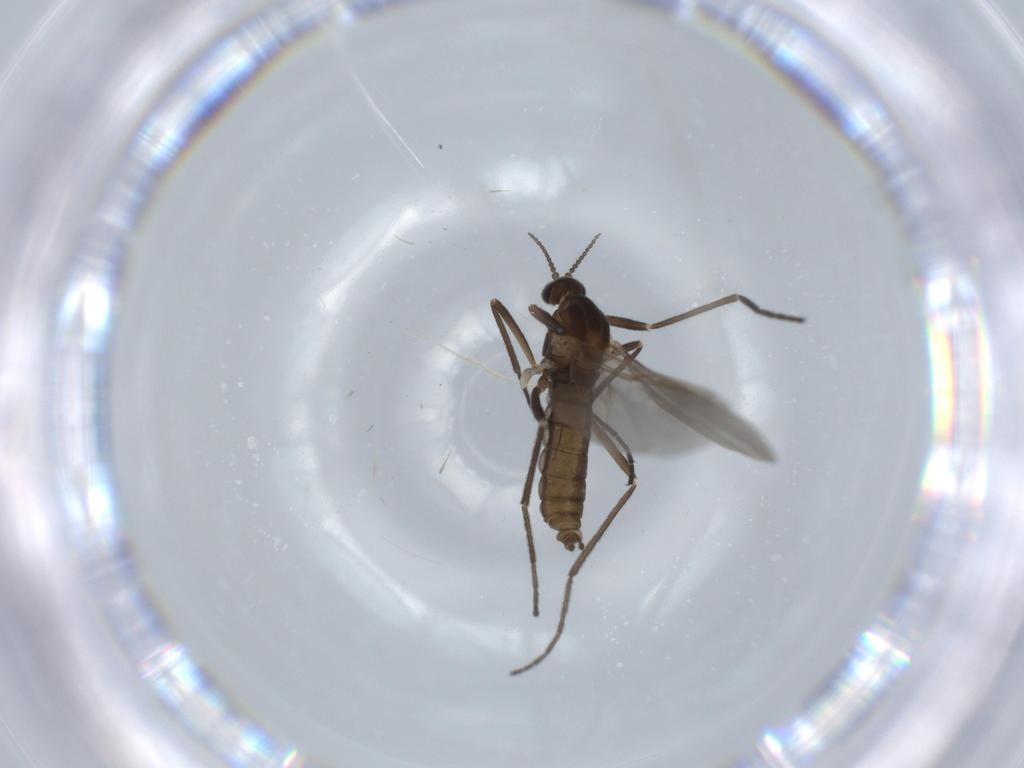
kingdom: Animalia
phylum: Arthropoda
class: Insecta
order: Diptera
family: Cecidomyiidae
